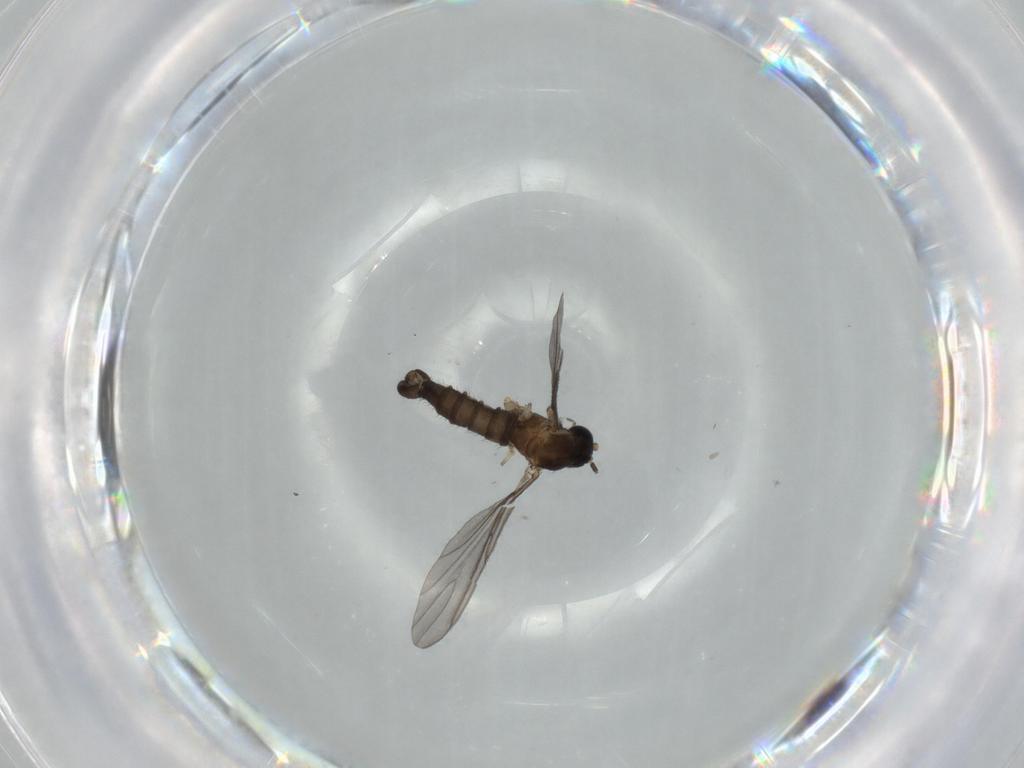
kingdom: Animalia
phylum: Arthropoda
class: Insecta
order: Diptera
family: Sciaridae
